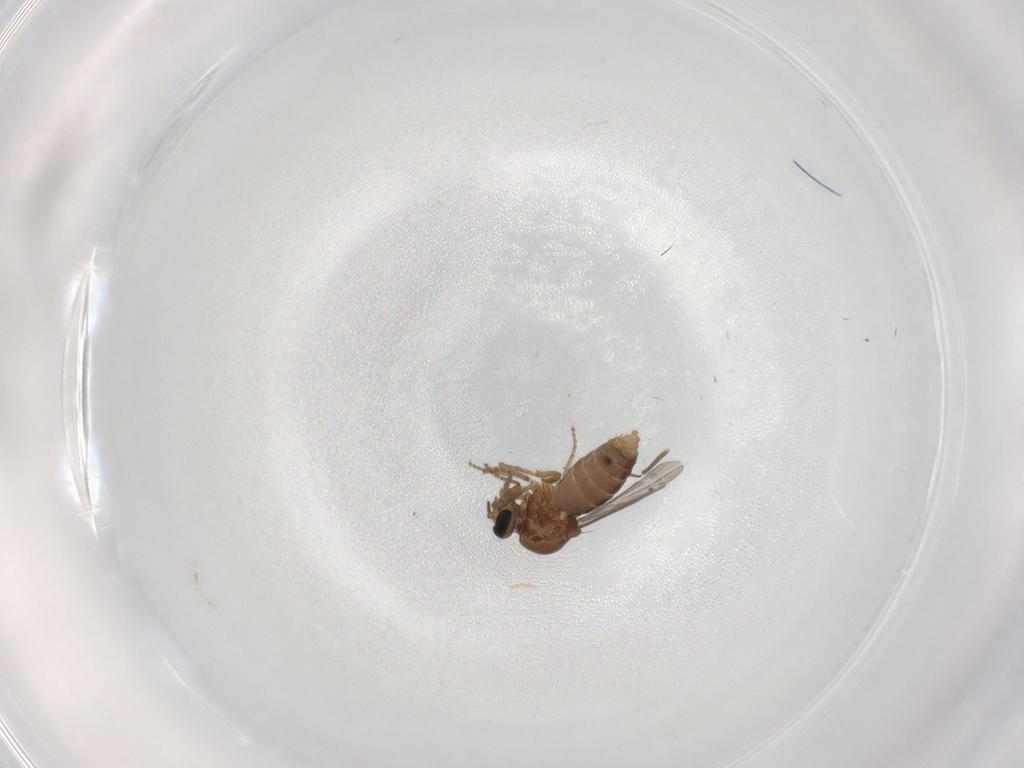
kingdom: Animalia
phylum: Arthropoda
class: Insecta
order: Diptera
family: Ceratopogonidae
